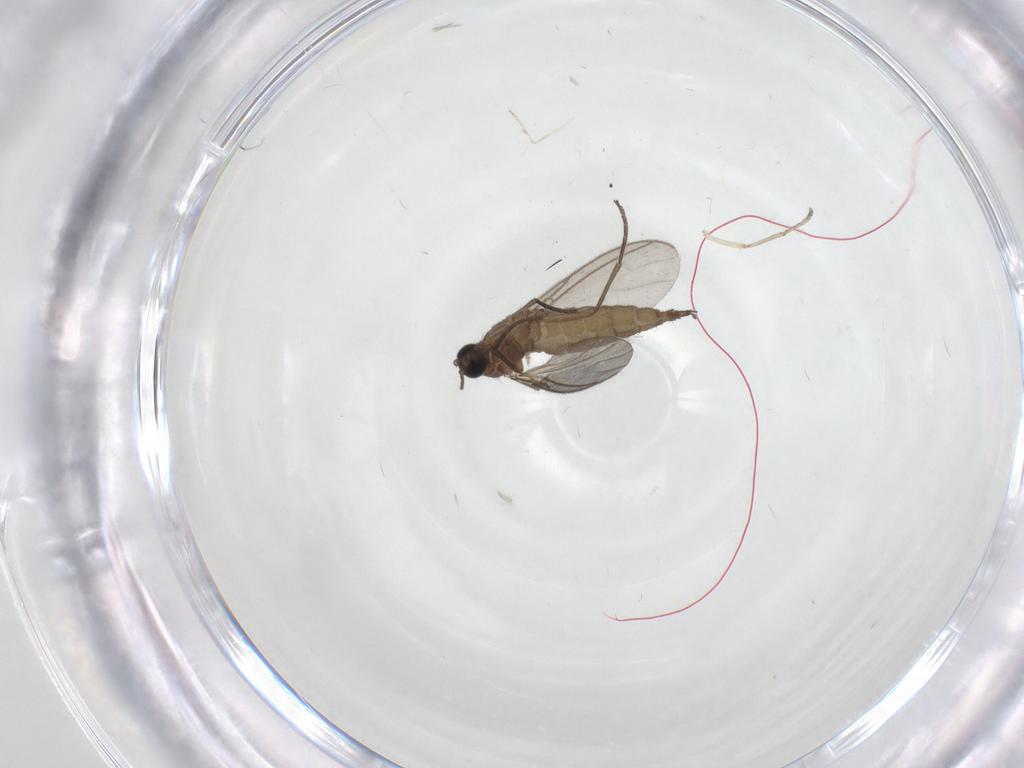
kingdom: Animalia
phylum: Arthropoda
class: Insecta
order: Diptera
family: Sciaridae
